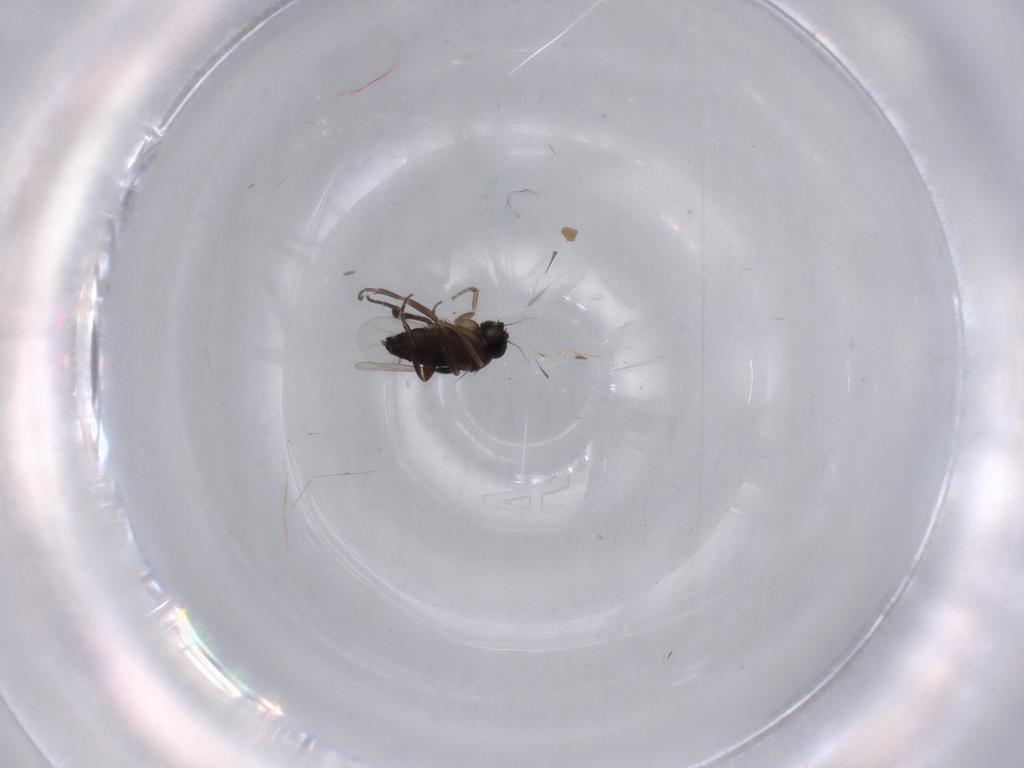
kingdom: Animalia
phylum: Arthropoda
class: Insecta
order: Diptera
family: Phoridae
